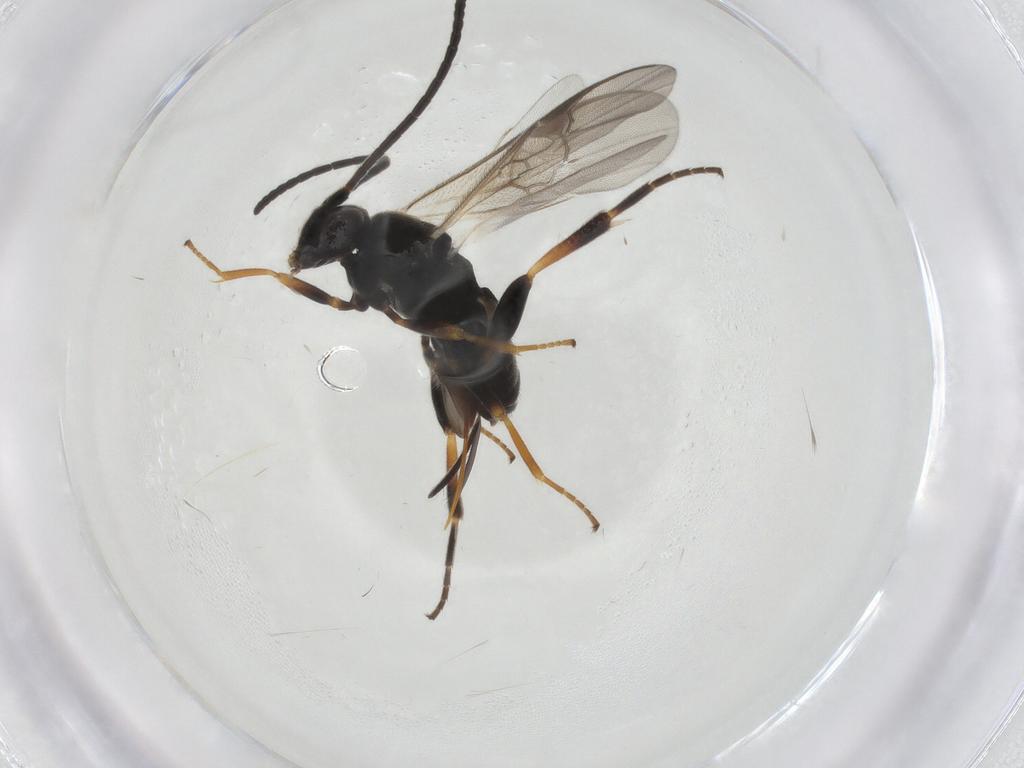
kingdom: Animalia
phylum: Arthropoda
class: Insecta
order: Hymenoptera
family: Braconidae
